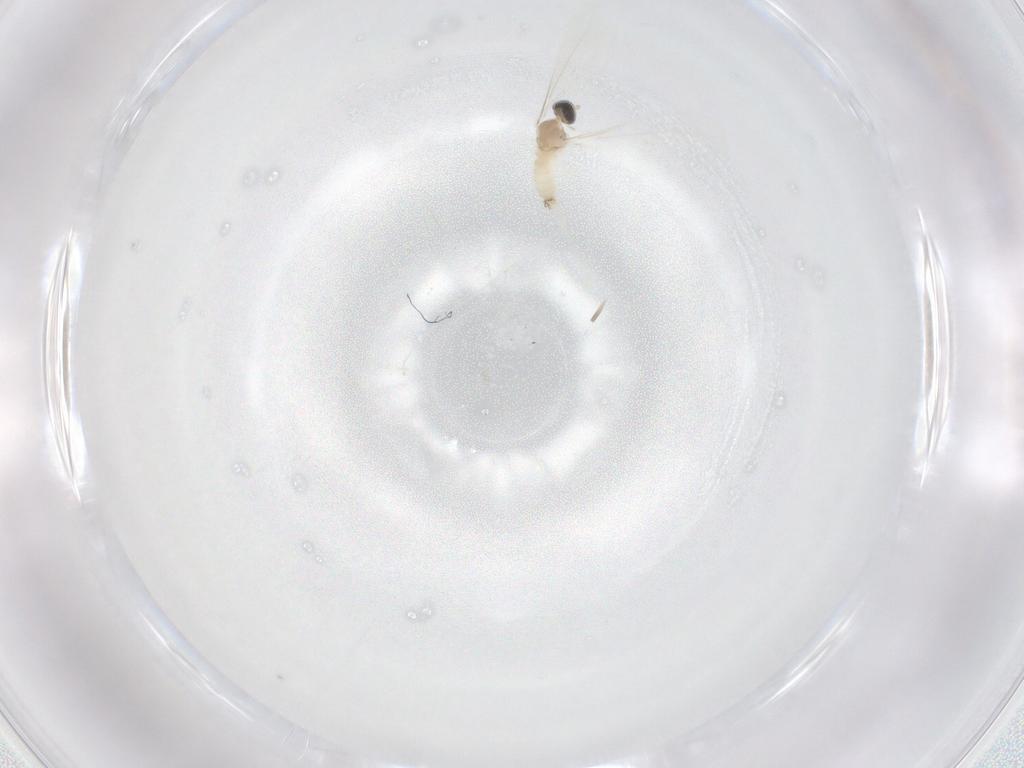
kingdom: Animalia
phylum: Arthropoda
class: Insecta
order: Diptera
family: Cecidomyiidae
